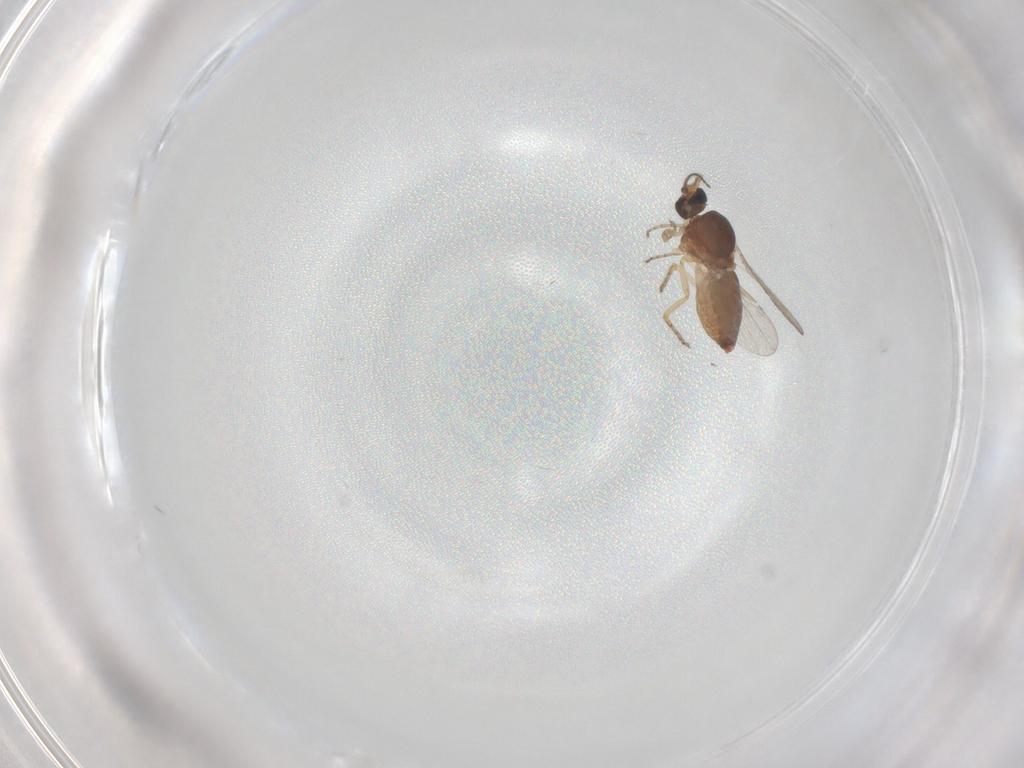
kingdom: Animalia
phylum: Arthropoda
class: Insecta
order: Diptera
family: Ceratopogonidae
